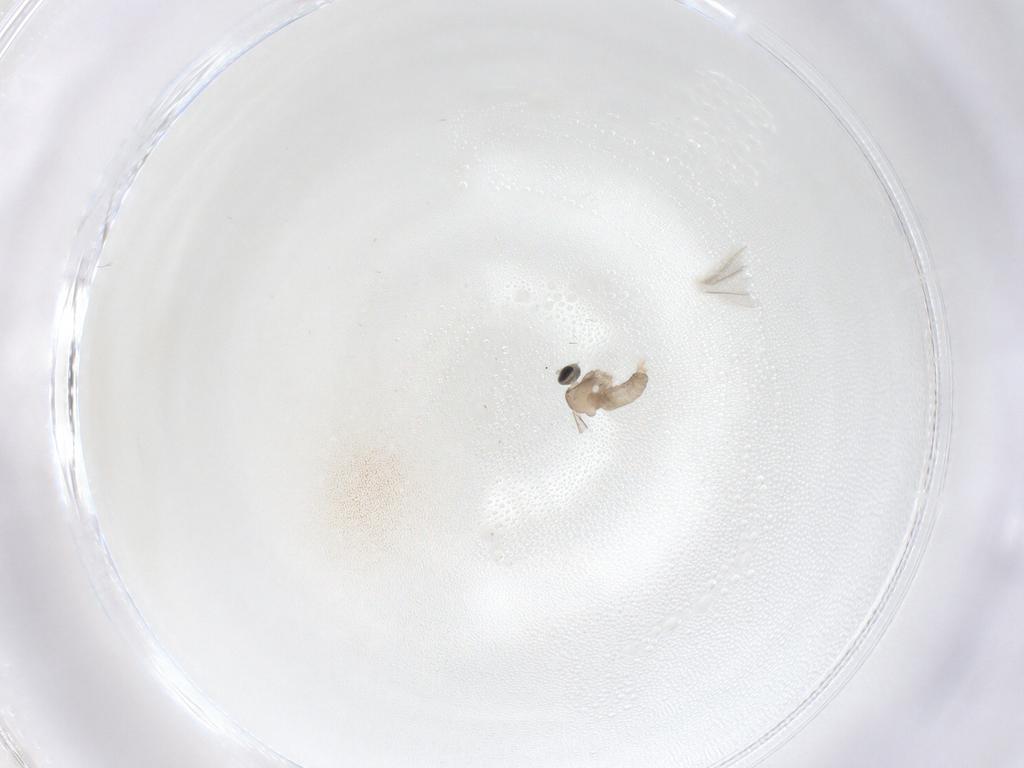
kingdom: Animalia
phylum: Arthropoda
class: Insecta
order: Diptera
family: Cecidomyiidae
